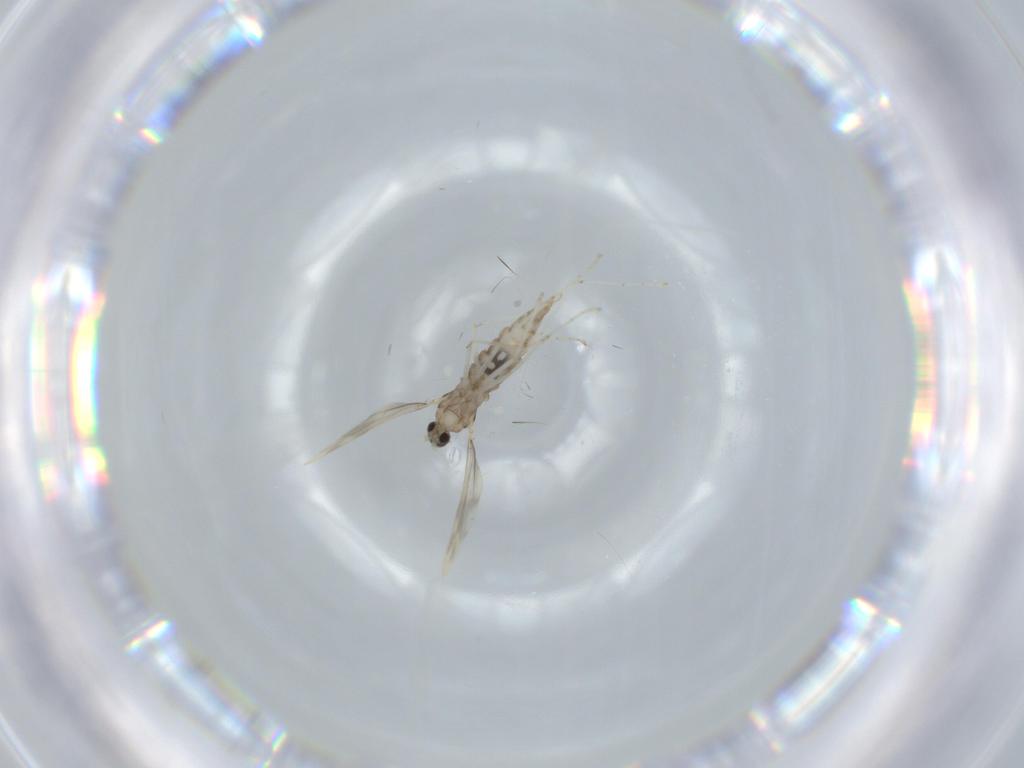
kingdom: Animalia
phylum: Arthropoda
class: Insecta
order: Diptera
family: Cecidomyiidae
